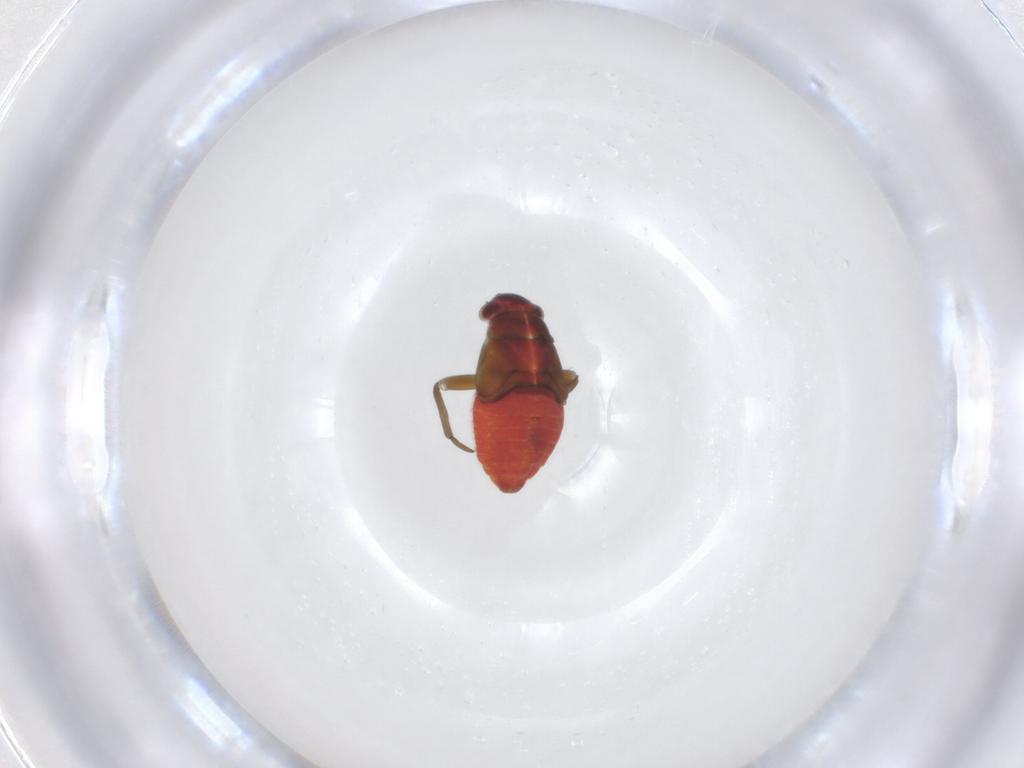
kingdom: Animalia
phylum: Arthropoda
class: Insecta
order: Hemiptera
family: Miridae
